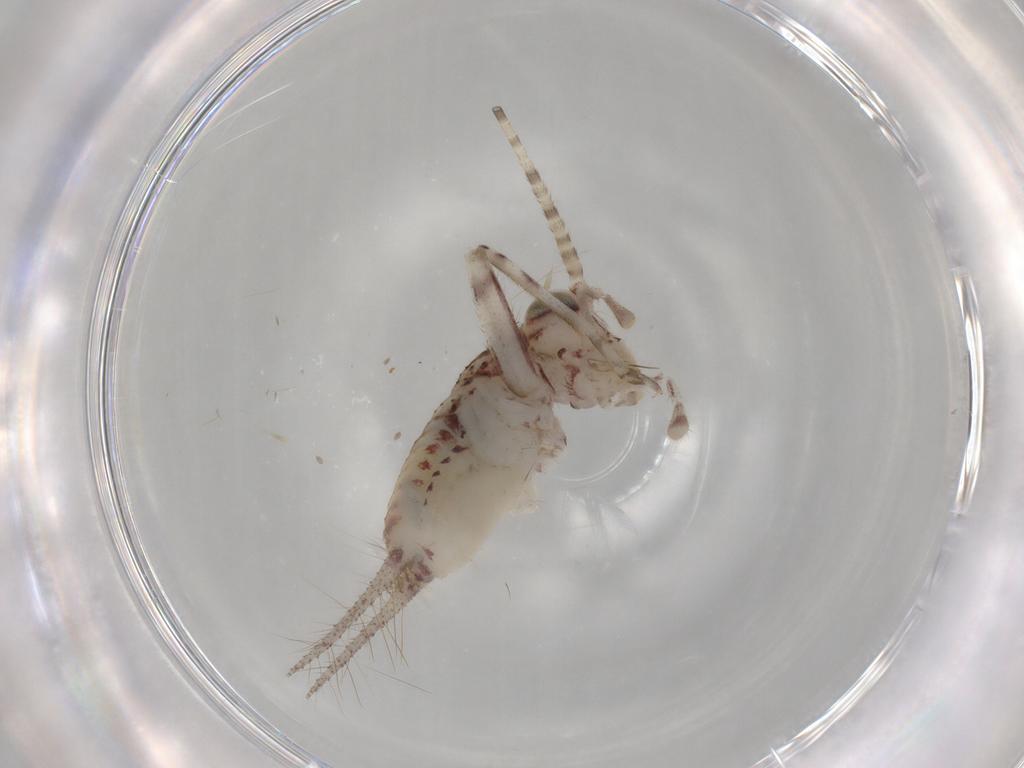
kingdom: Animalia
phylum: Arthropoda
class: Insecta
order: Orthoptera
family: Trigonidiidae
